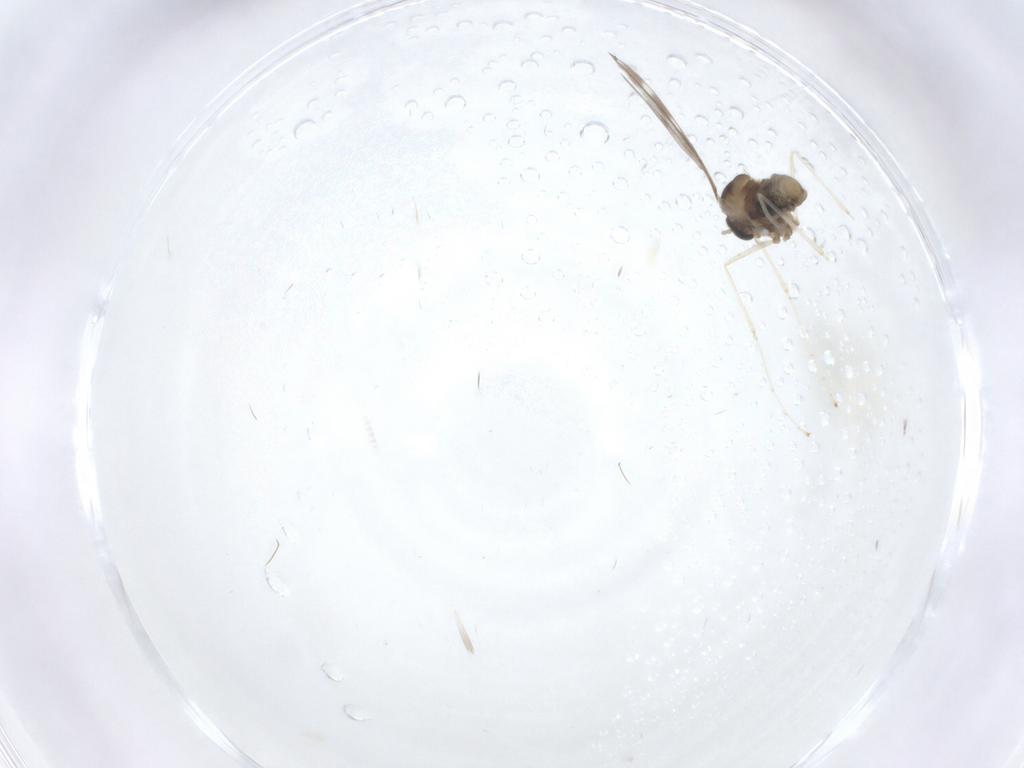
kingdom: Animalia
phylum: Arthropoda
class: Insecta
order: Diptera
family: Cecidomyiidae
